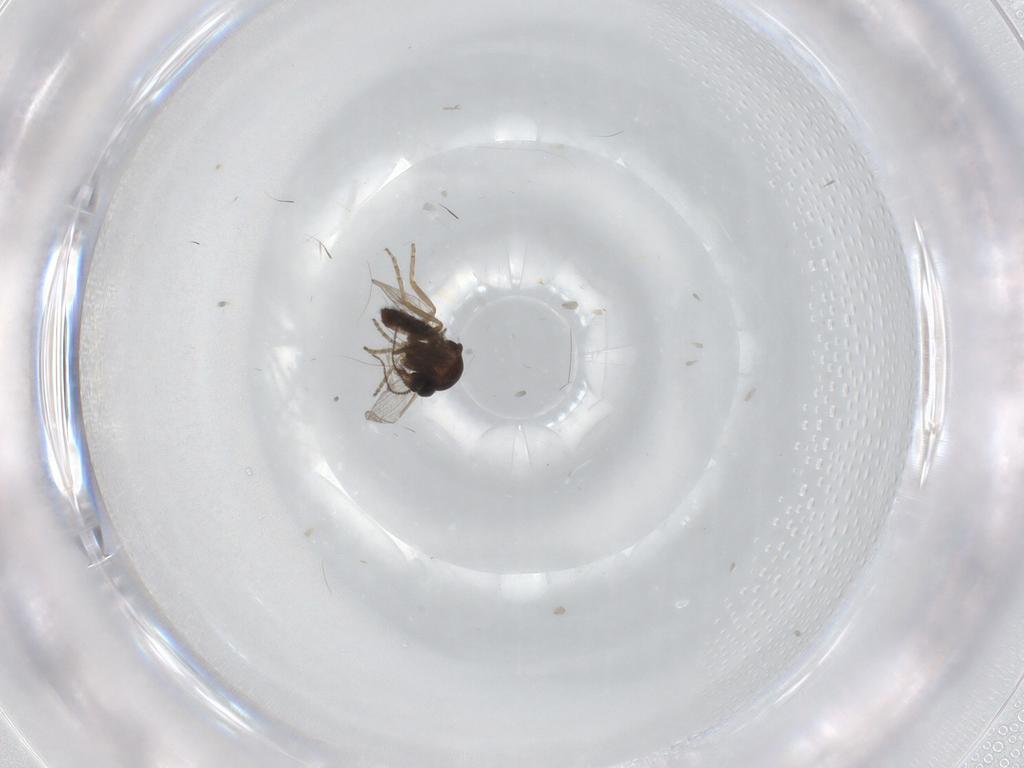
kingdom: Animalia
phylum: Arthropoda
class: Insecta
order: Diptera
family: Ceratopogonidae
